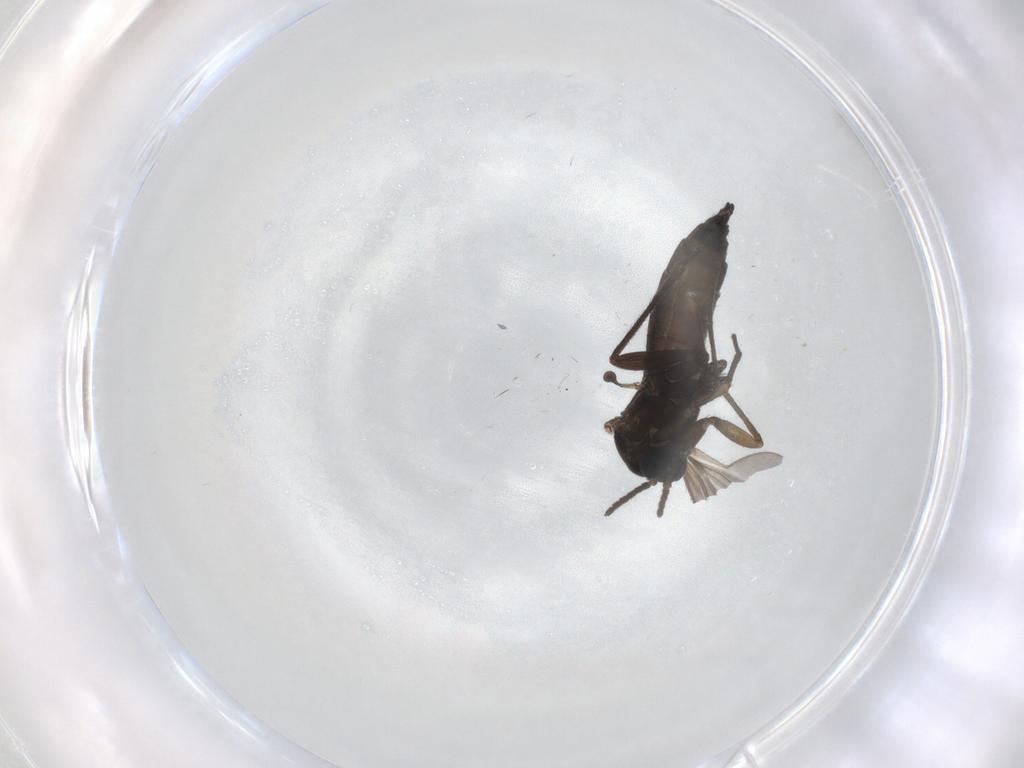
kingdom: Animalia
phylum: Arthropoda
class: Insecta
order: Diptera
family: Sciaridae
